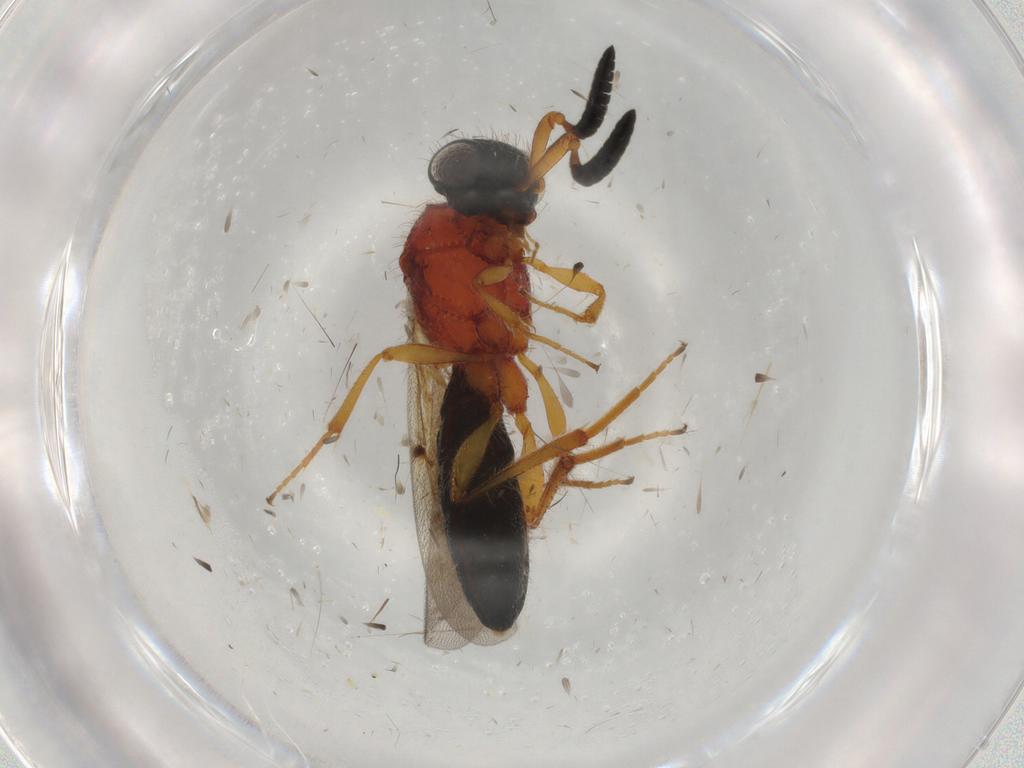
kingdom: Animalia
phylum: Arthropoda
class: Insecta
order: Hymenoptera
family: Scelionidae
